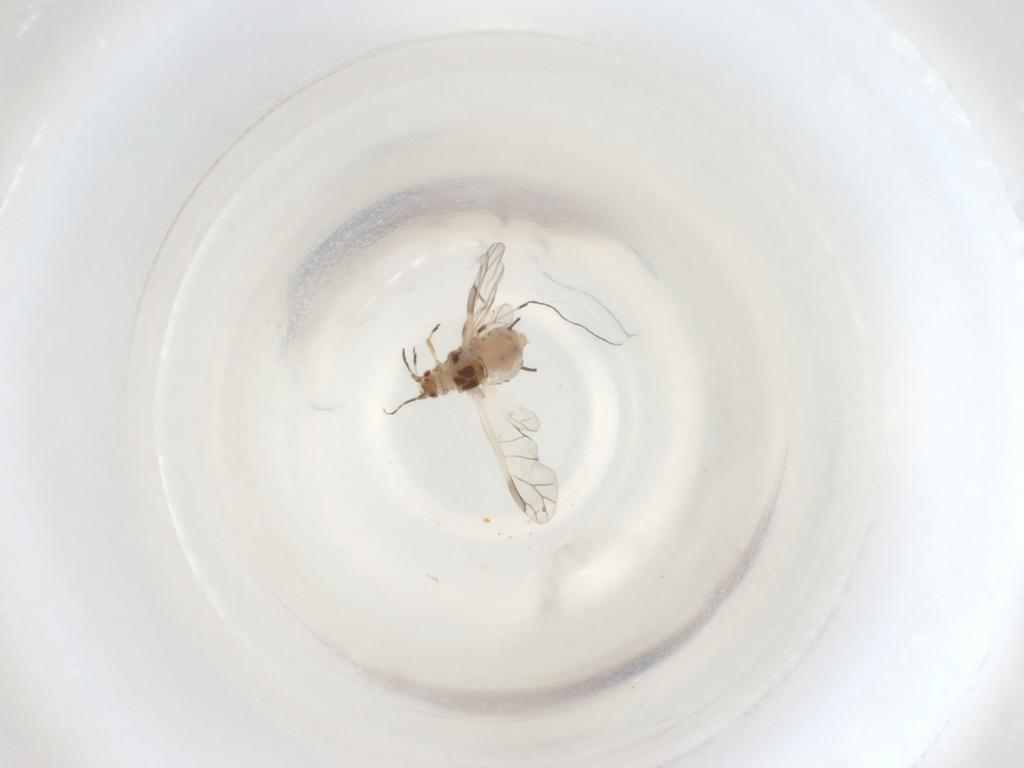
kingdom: Animalia
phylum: Arthropoda
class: Insecta
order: Hemiptera
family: Aphididae
